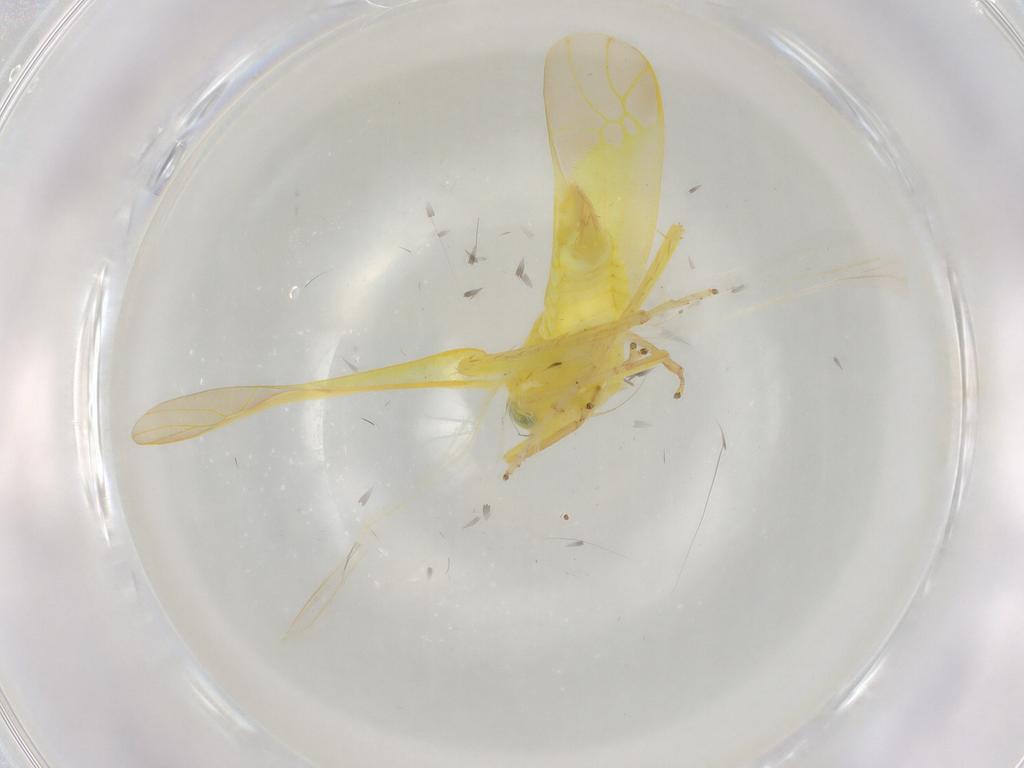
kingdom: Animalia
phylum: Arthropoda
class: Insecta
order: Hemiptera
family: Cicadellidae
